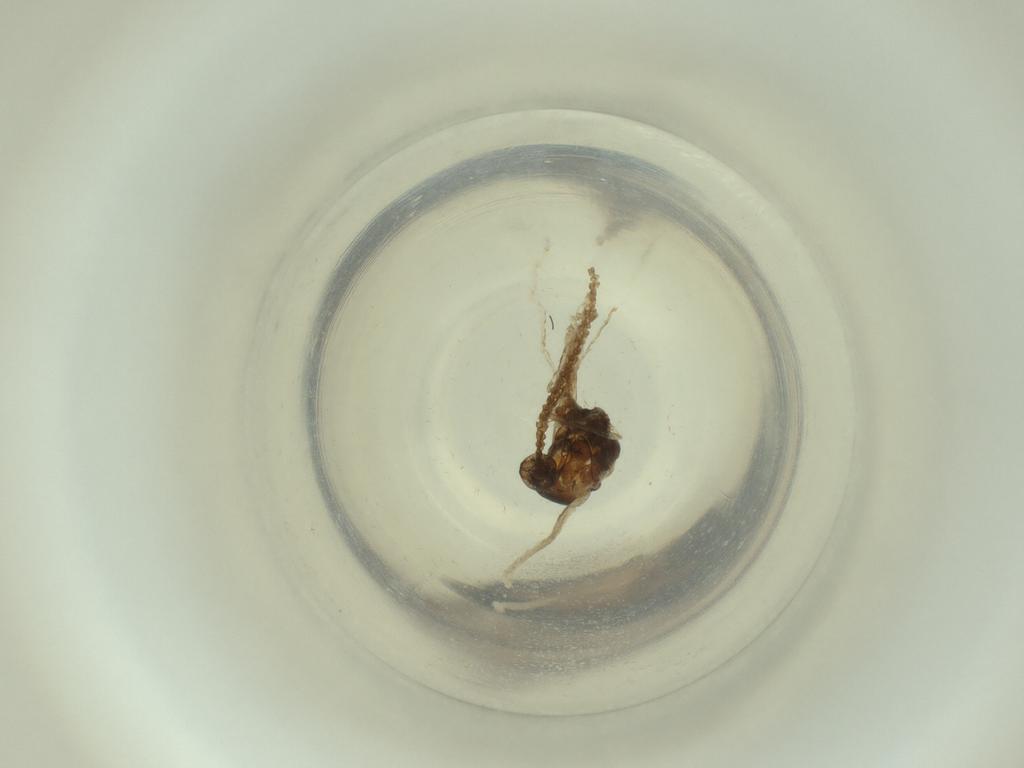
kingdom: Animalia
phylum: Arthropoda
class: Insecta
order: Diptera
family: Cecidomyiidae
